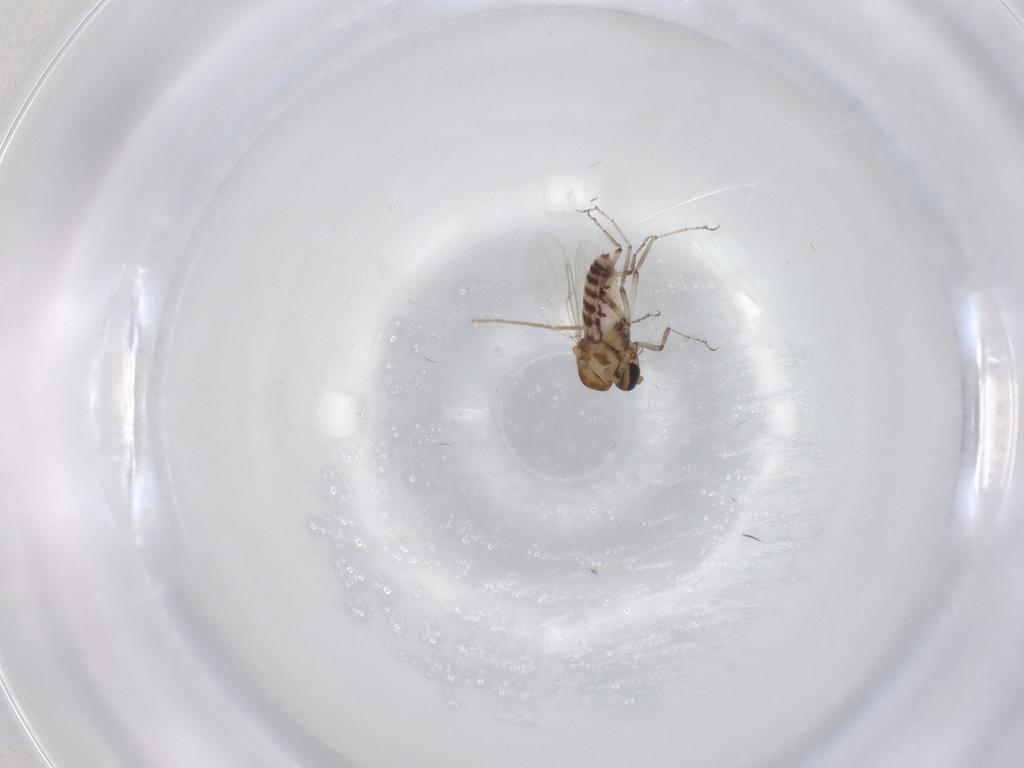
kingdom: Animalia
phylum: Arthropoda
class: Insecta
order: Diptera
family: Ceratopogonidae
